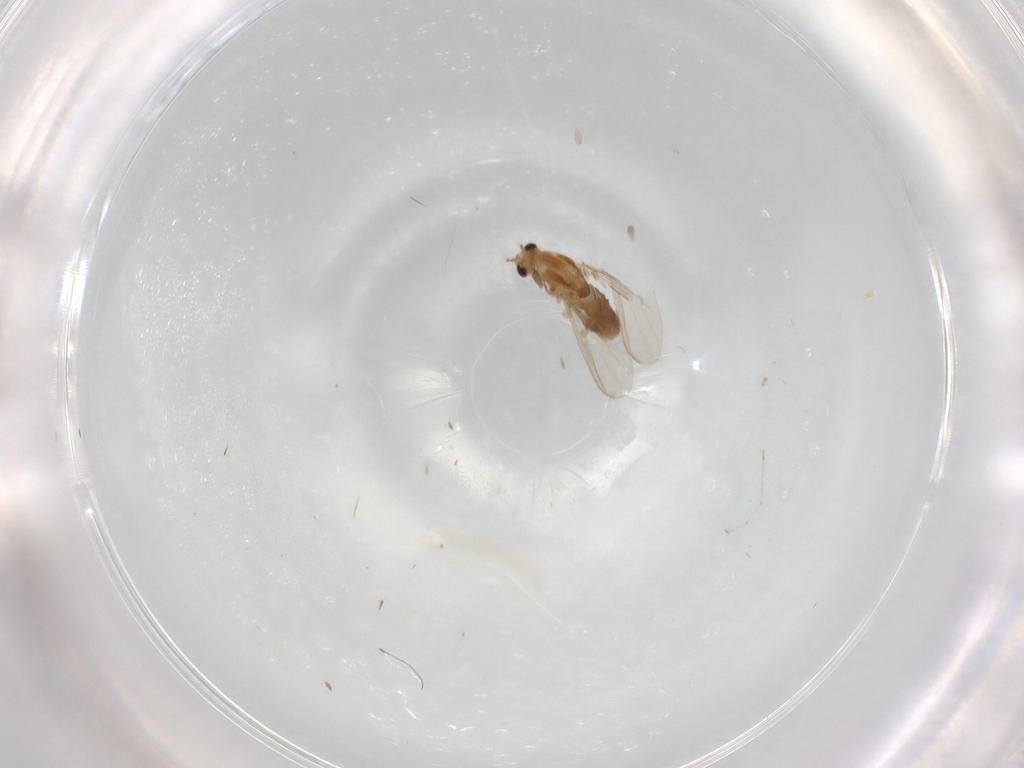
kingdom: Animalia
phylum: Arthropoda
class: Insecta
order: Diptera
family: Chironomidae
